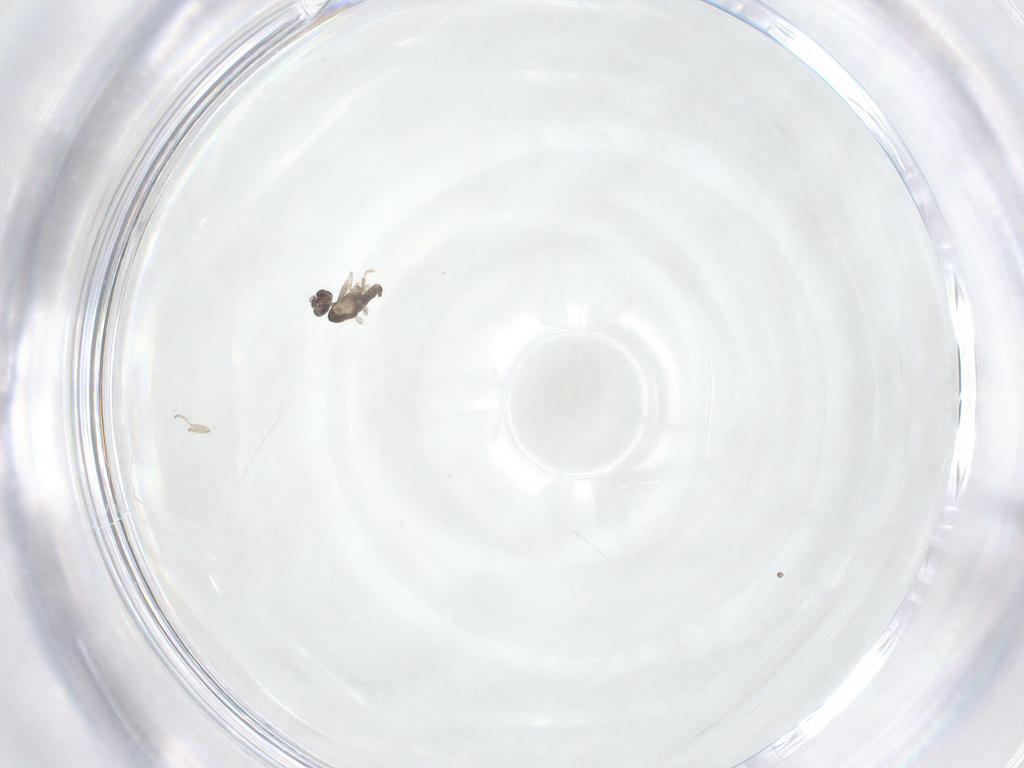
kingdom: Animalia
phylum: Arthropoda
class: Insecta
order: Diptera
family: Cecidomyiidae
